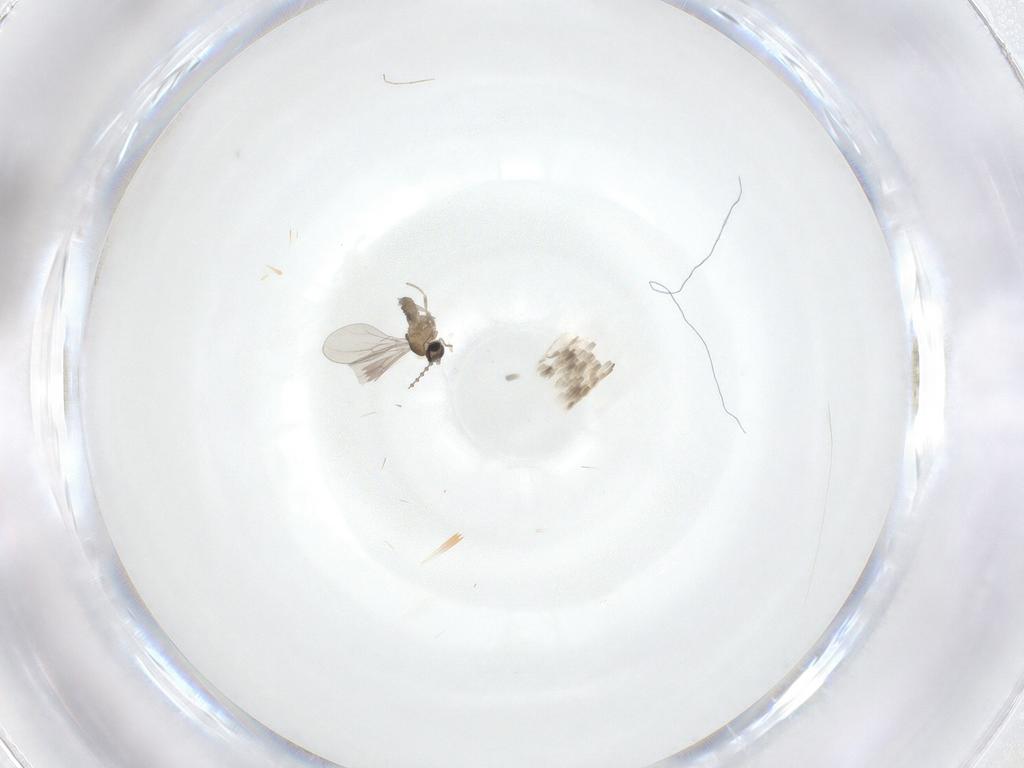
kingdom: Animalia
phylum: Arthropoda
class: Insecta
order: Diptera
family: Cecidomyiidae
